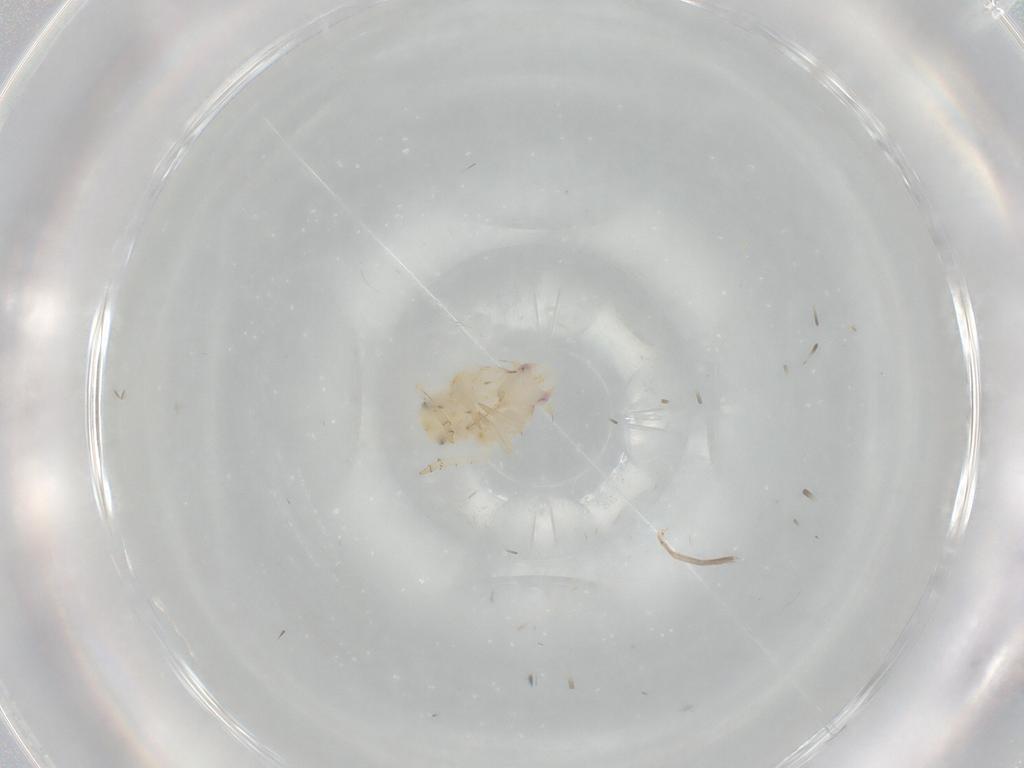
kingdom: Animalia
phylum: Arthropoda
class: Insecta
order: Hemiptera
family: Flatidae
